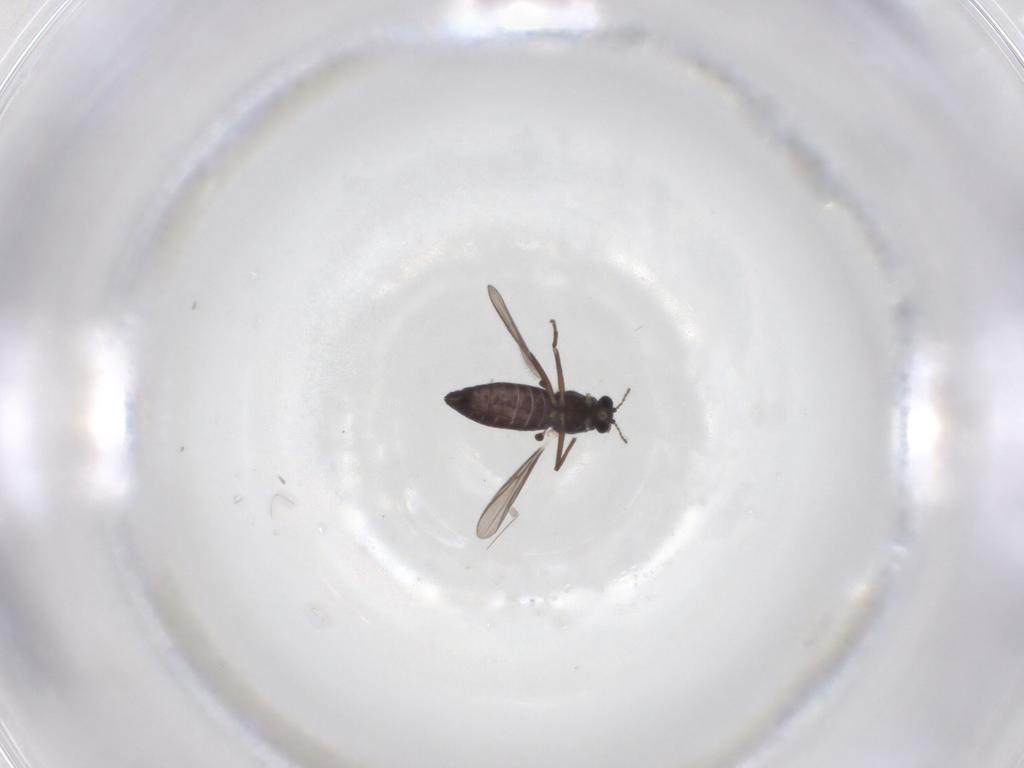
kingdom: Animalia
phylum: Arthropoda
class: Insecta
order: Diptera
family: Chironomidae
